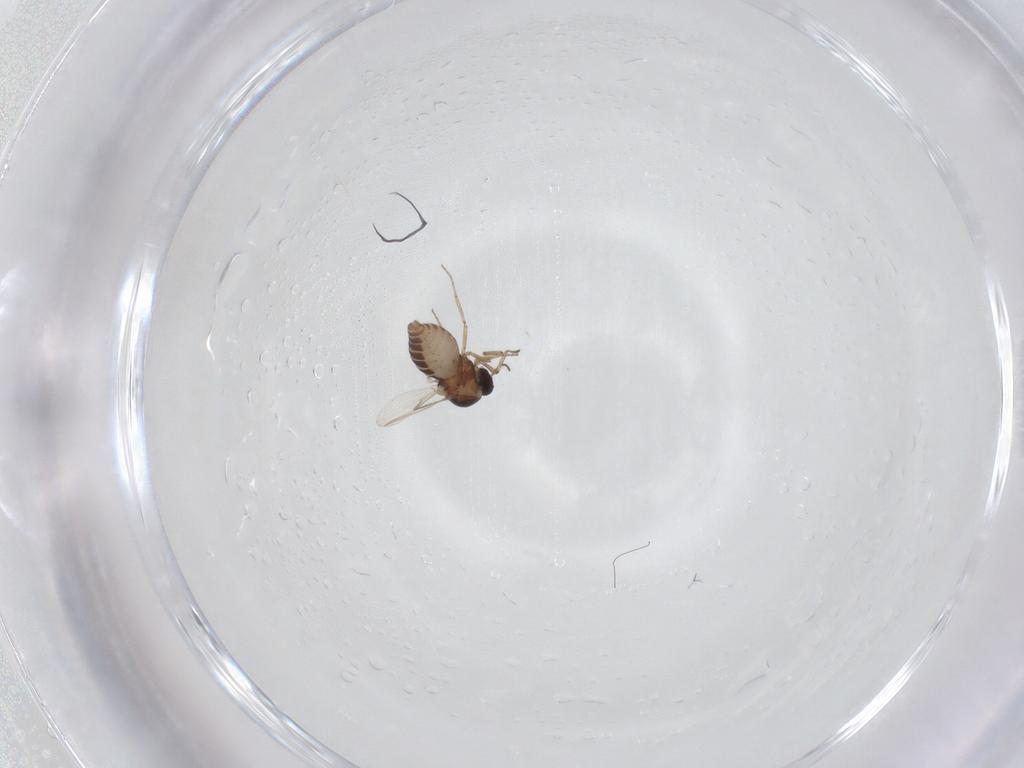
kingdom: Animalia
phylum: Arthropoda
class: Insecta
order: Diptera
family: Ceratopogonidae
